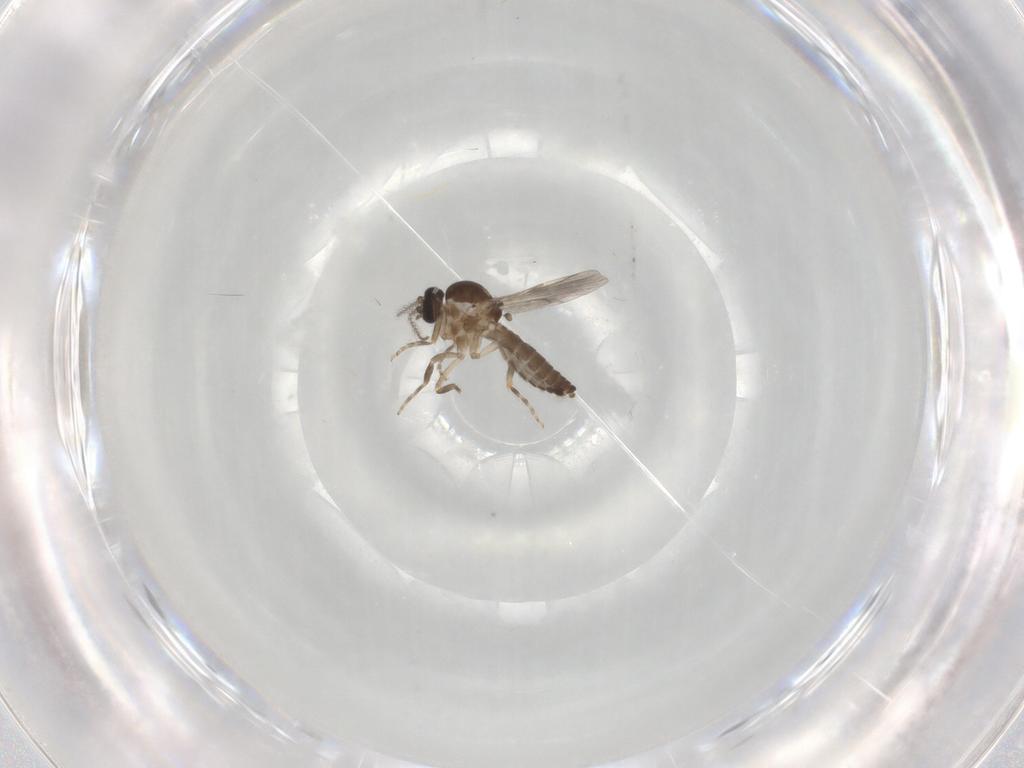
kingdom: Animalia
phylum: Arthropoda
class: Insecta
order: Diptera
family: Ceratopogonidae
